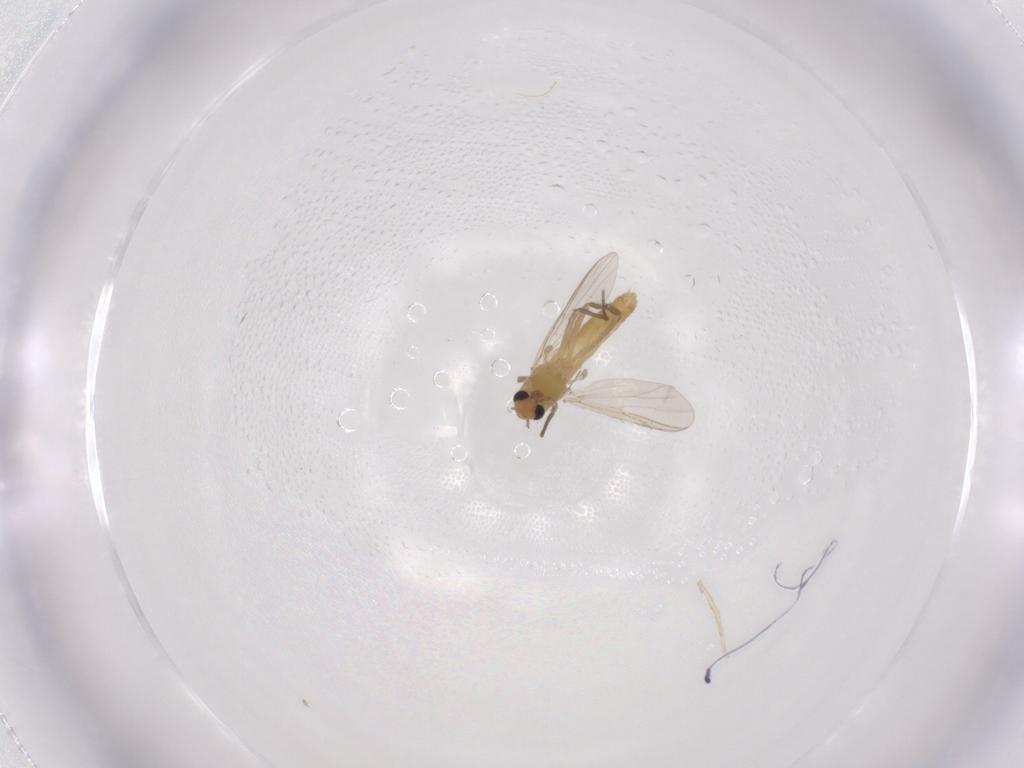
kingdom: Animalia
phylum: Arthropoda
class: Insecta
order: Diptera
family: Chironomidae
